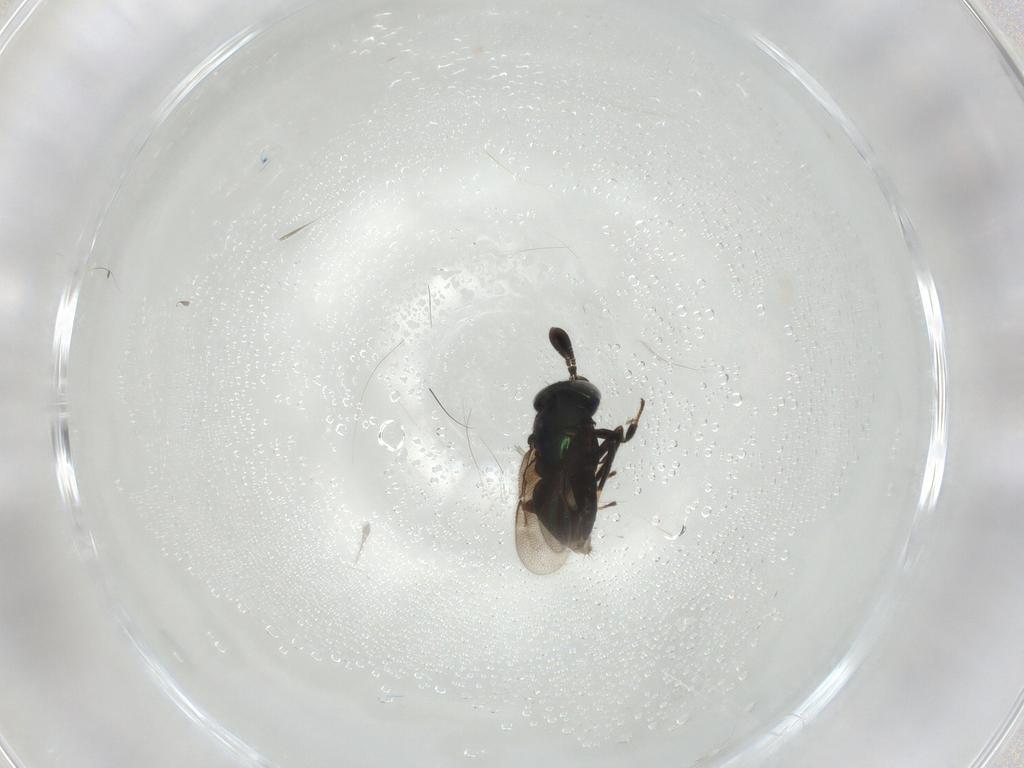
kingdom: Animalia
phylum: Arthropoda
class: Insecta
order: Hymenoptera
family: Encyrtidae
